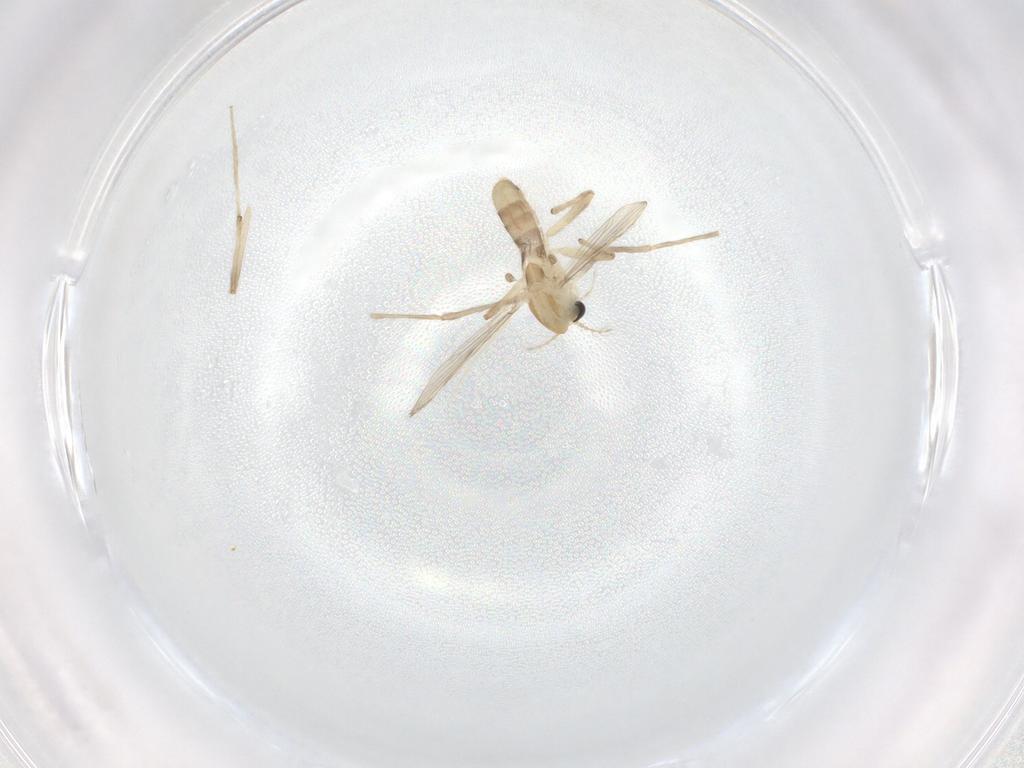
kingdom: Animalia
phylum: Arthropoda
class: Insecta
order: Diptera
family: Chironomidae
